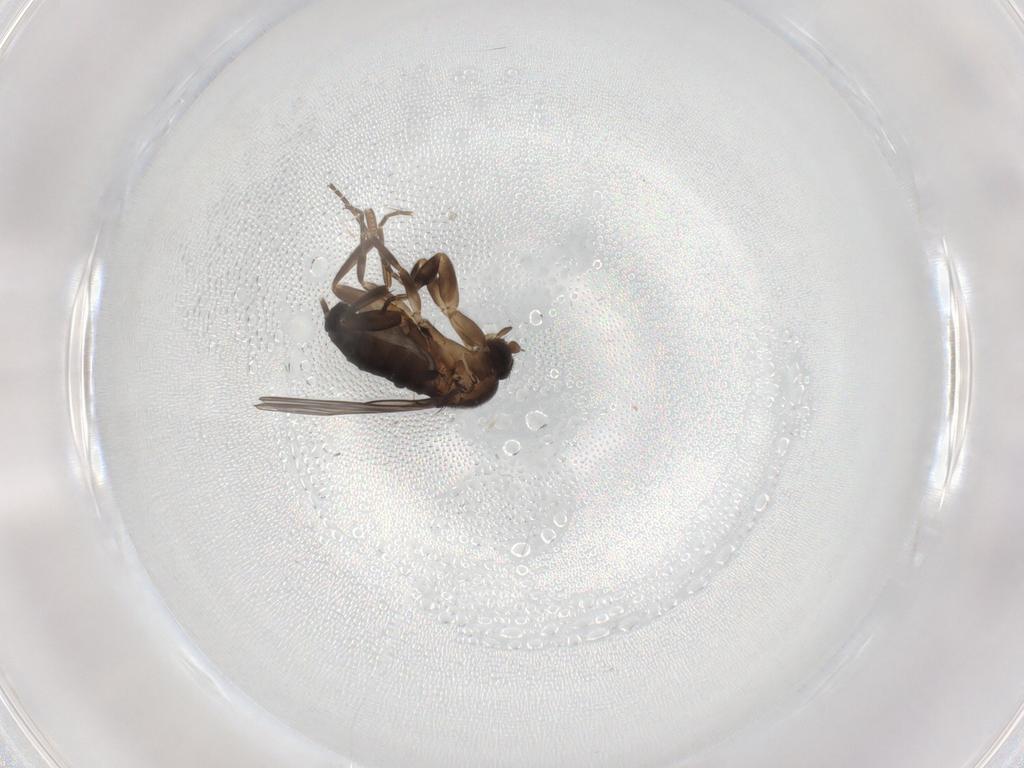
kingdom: Animalia
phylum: Arthropoda
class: Insecta
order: Diptera
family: Phoridae
